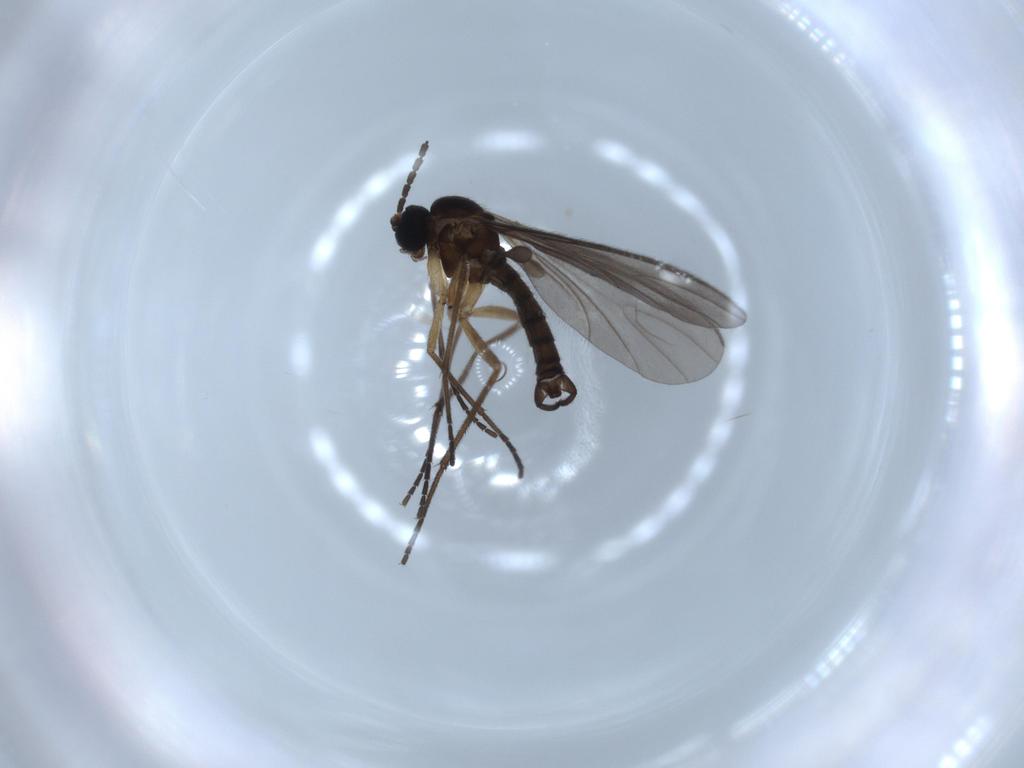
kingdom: Animalia
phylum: Arthropoda
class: Insecta
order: Diptera
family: Sciaridae
